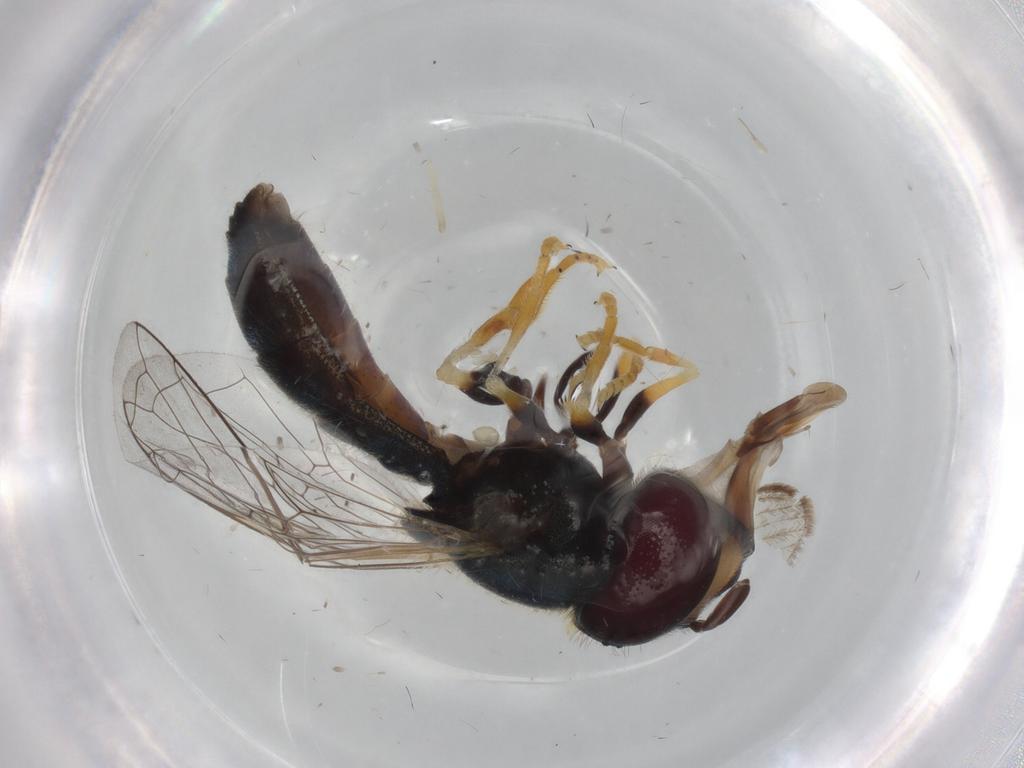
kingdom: Animalia
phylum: Arthropoda
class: Insecta
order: Diptera
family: Syrphidae
